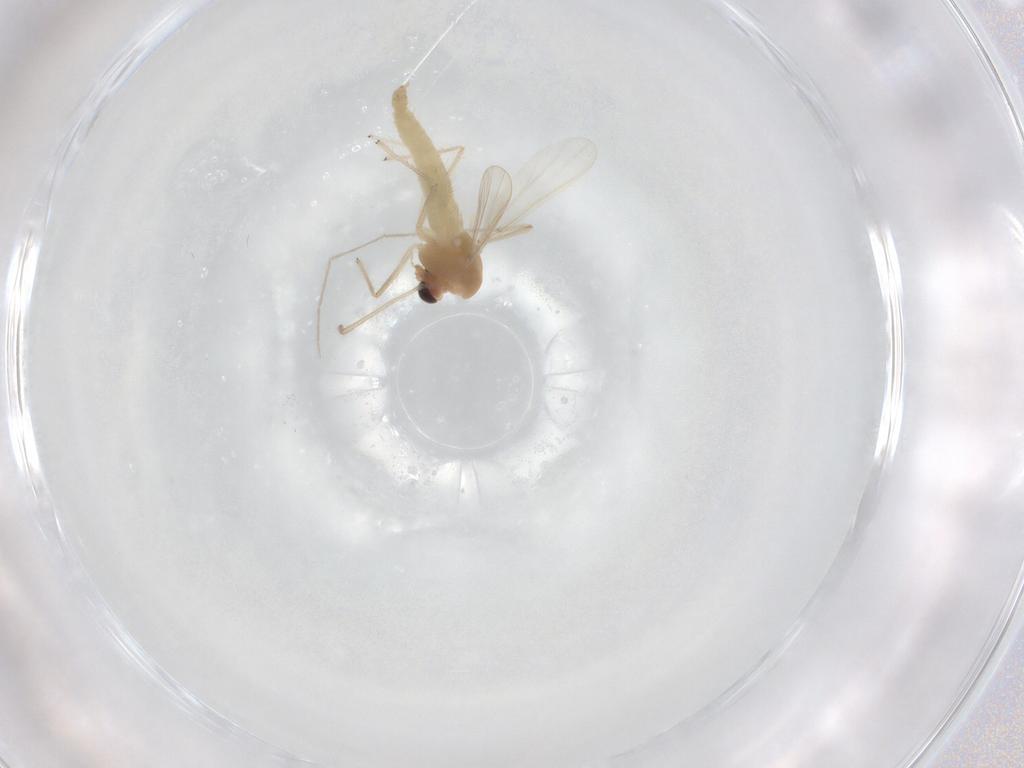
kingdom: Animalia
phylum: Arthropoda
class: Insecta
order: Diptera
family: Chironomidae
